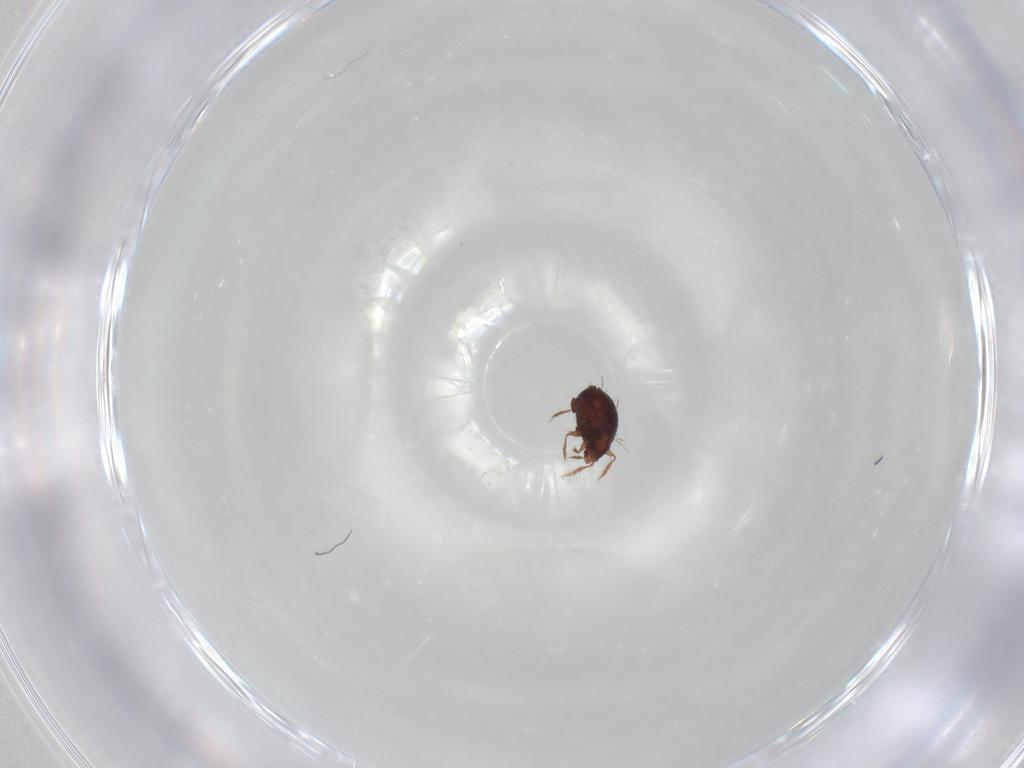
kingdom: Animalia
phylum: Arthropoda
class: Arachnida
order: Sarcoptiformes
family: Caloppiidae
